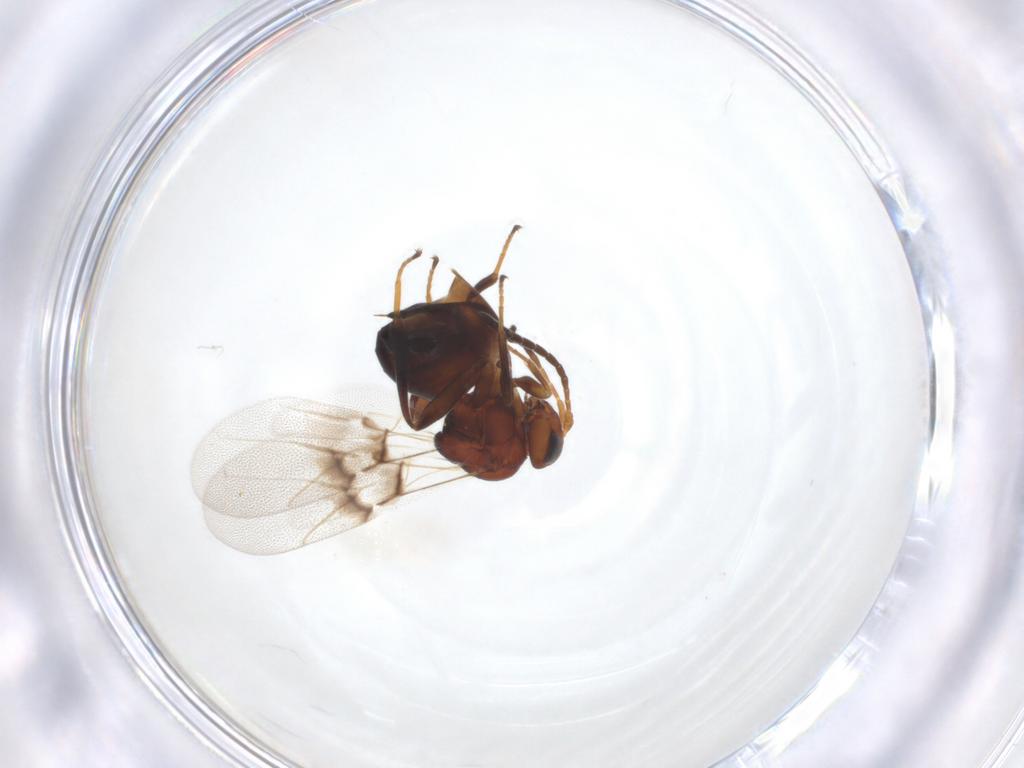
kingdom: Animalia
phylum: Arthropoda
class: Insecta
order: Hymenoptera
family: Cynipidae
